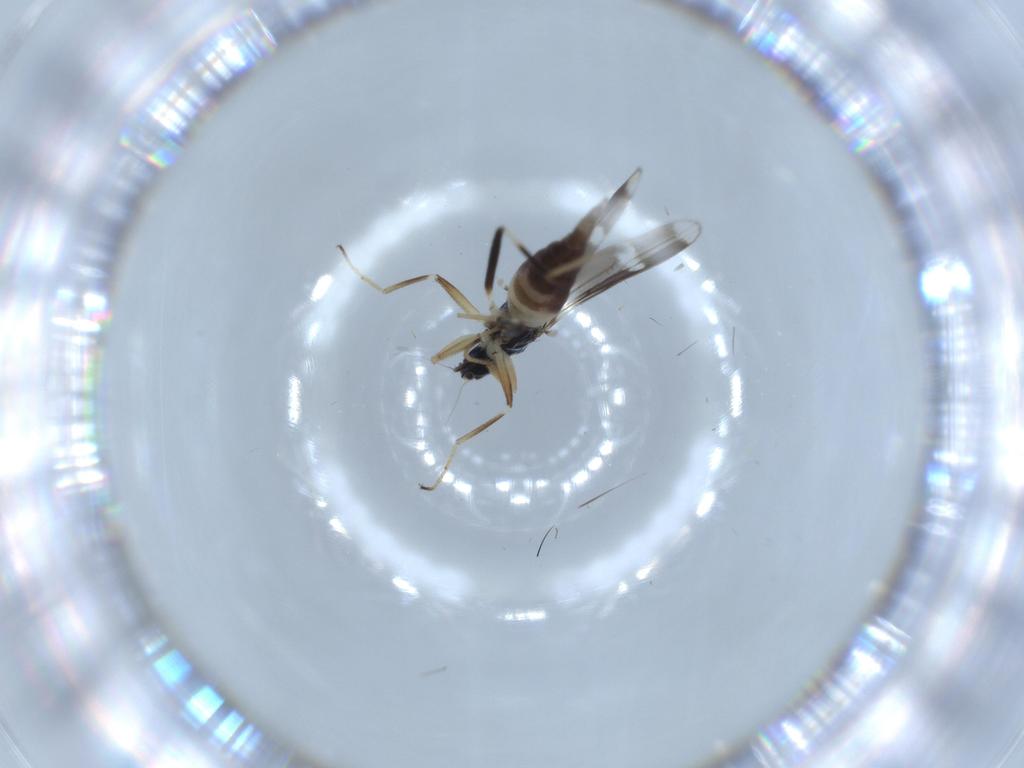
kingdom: Animalia
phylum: Arthropoda
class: Insecta
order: Diptera
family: Hybotidae
